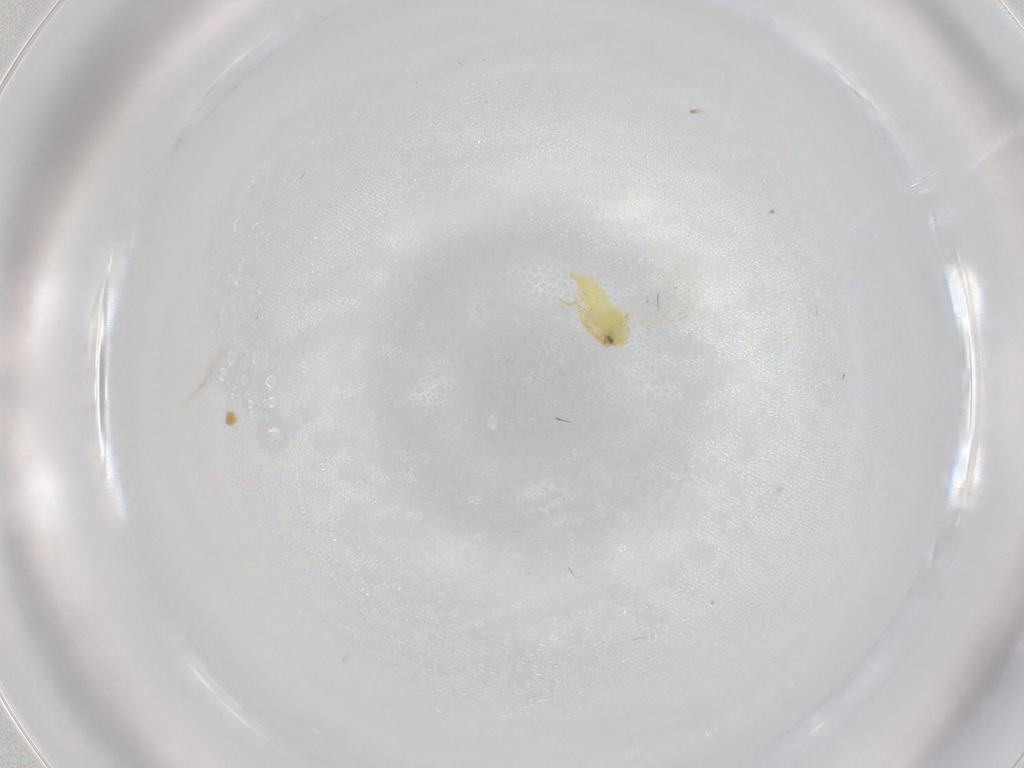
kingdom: Animalia
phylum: Arthropoda
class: Insecta
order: Hemiptera
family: Aleyrodidae
